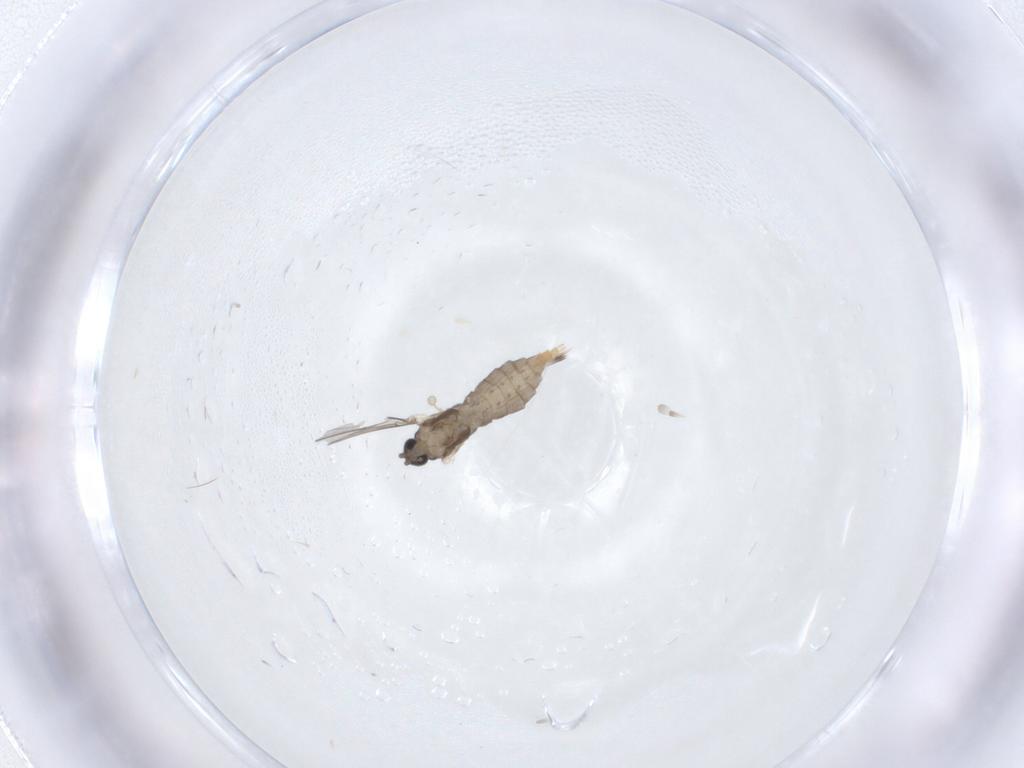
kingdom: Animalia
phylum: Arthropoda
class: Insecta
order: Diptera
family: Cecidomyiidae
